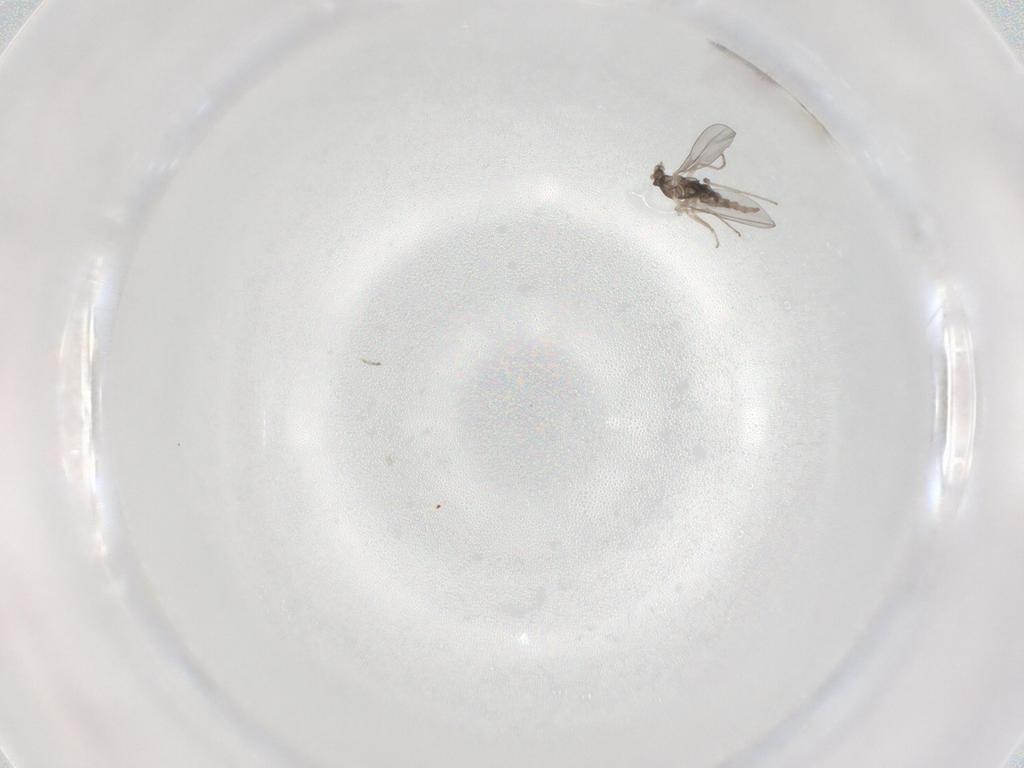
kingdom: Animalia
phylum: Arthropoda
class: Insecta
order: Diptera
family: Cecidomyiidae
